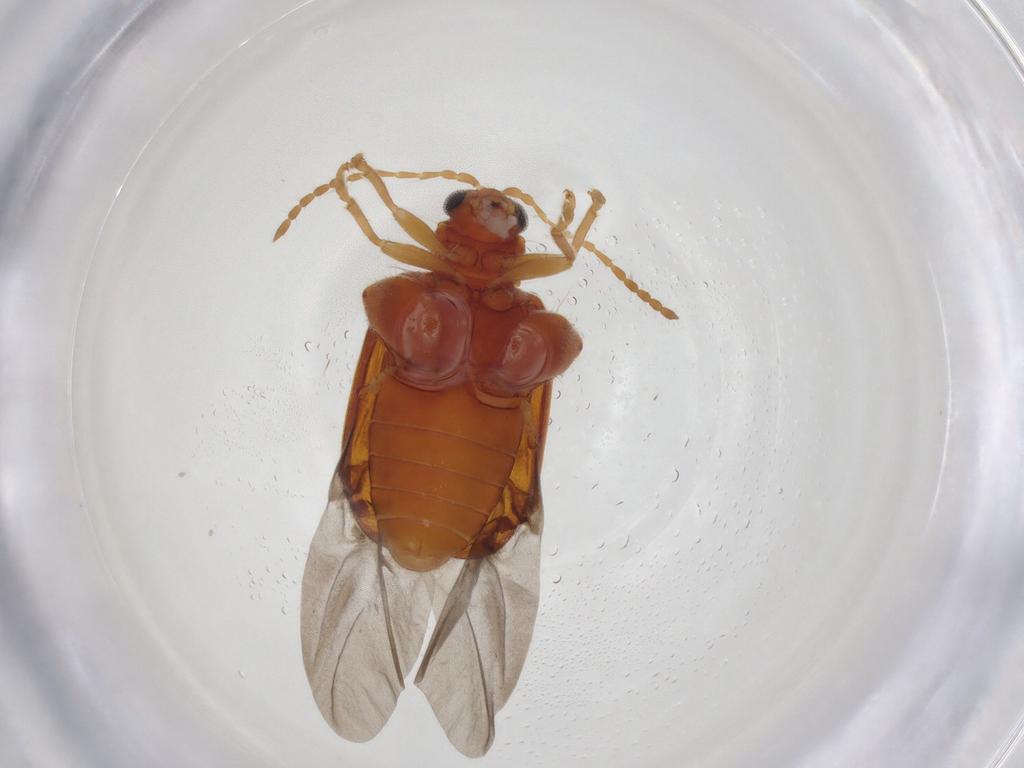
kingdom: Animalia
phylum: Arthropoda
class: Insecta
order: Coleoptera
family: Chrysomelidae
